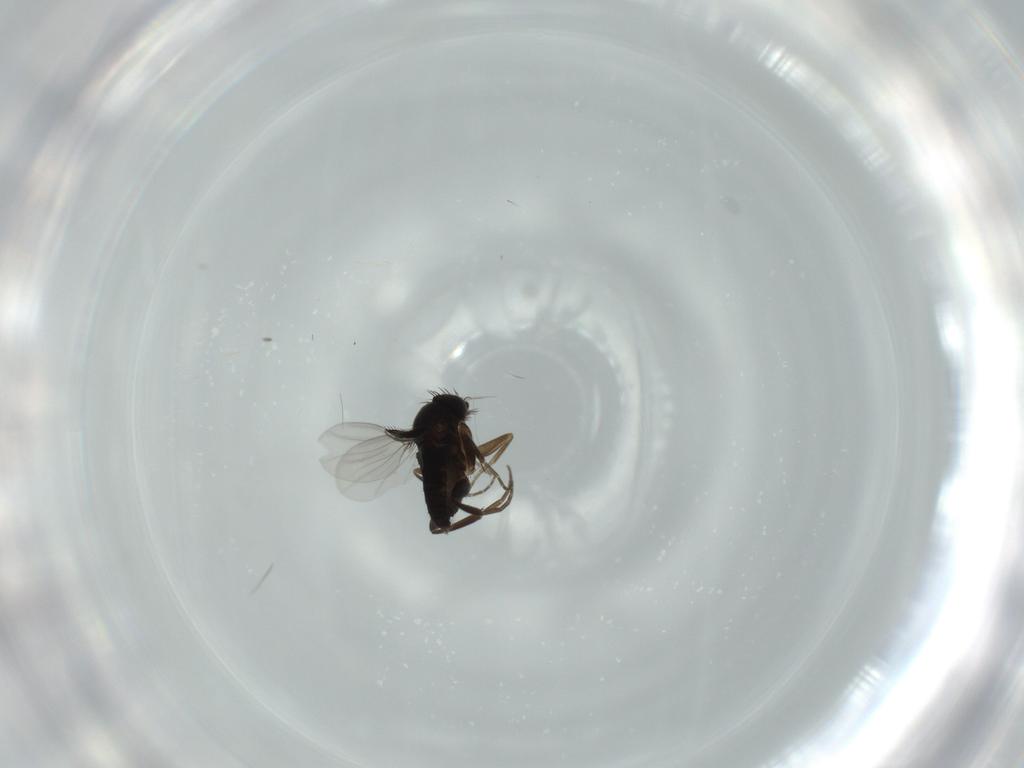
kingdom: Animalia
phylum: Arthropoda
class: Insecta
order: Diptera
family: Phoridae
